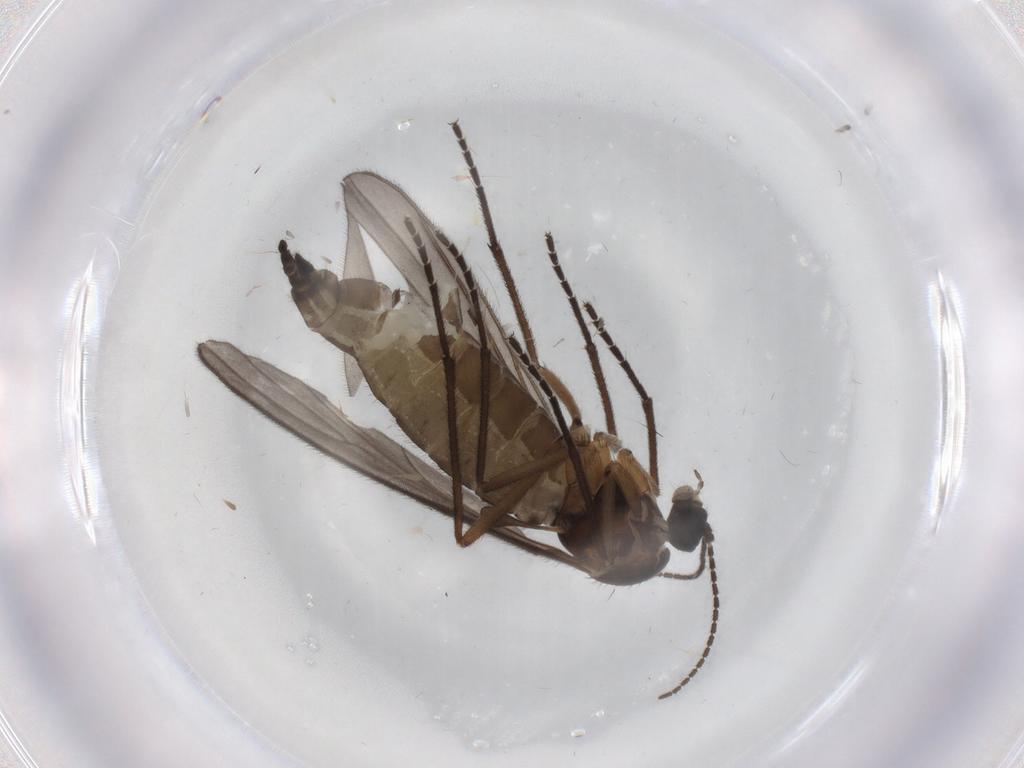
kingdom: Animalia
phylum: Arthropoda
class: Insecta
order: Diptera
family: Sciaridae
